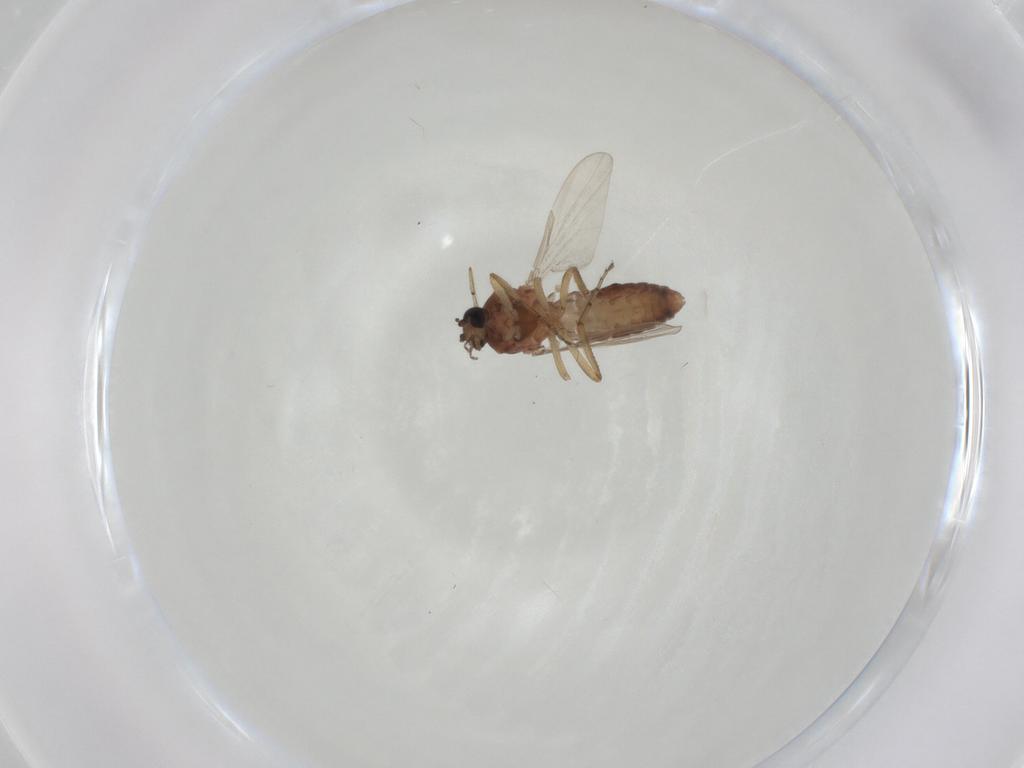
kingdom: Animalia
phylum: Arthropoda
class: Insecta
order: Diptera
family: Ceratopogonidae
